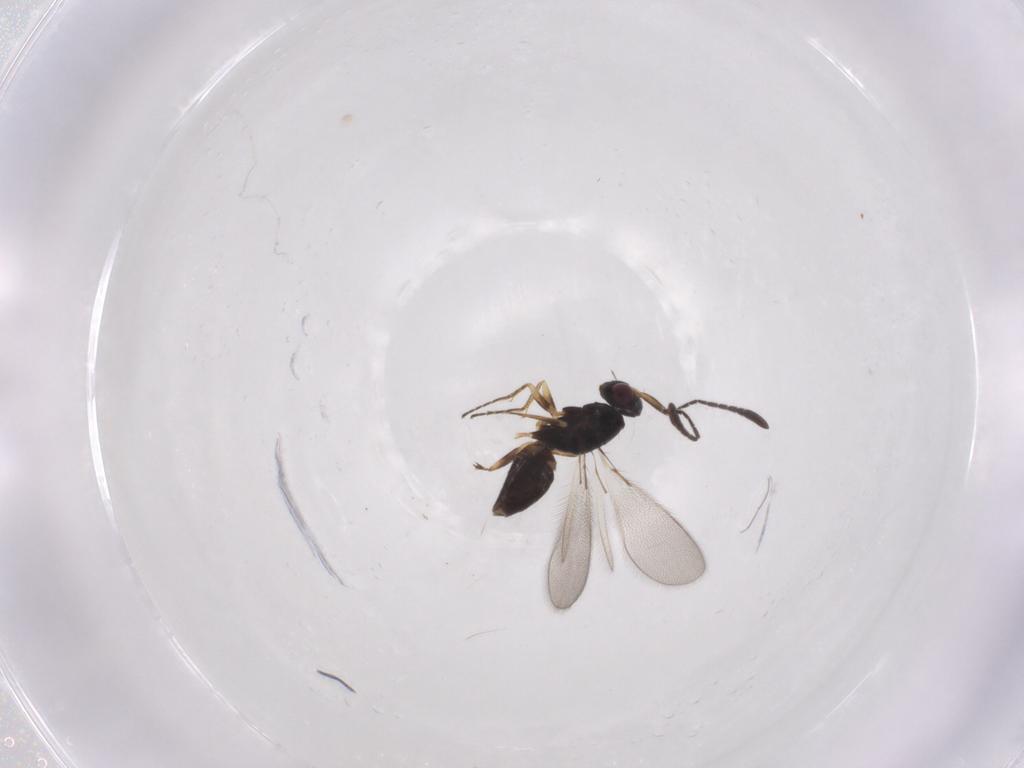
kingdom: Animalia
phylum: Arthropoda
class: Insecta
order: Hymenoptera
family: Mymaridae
